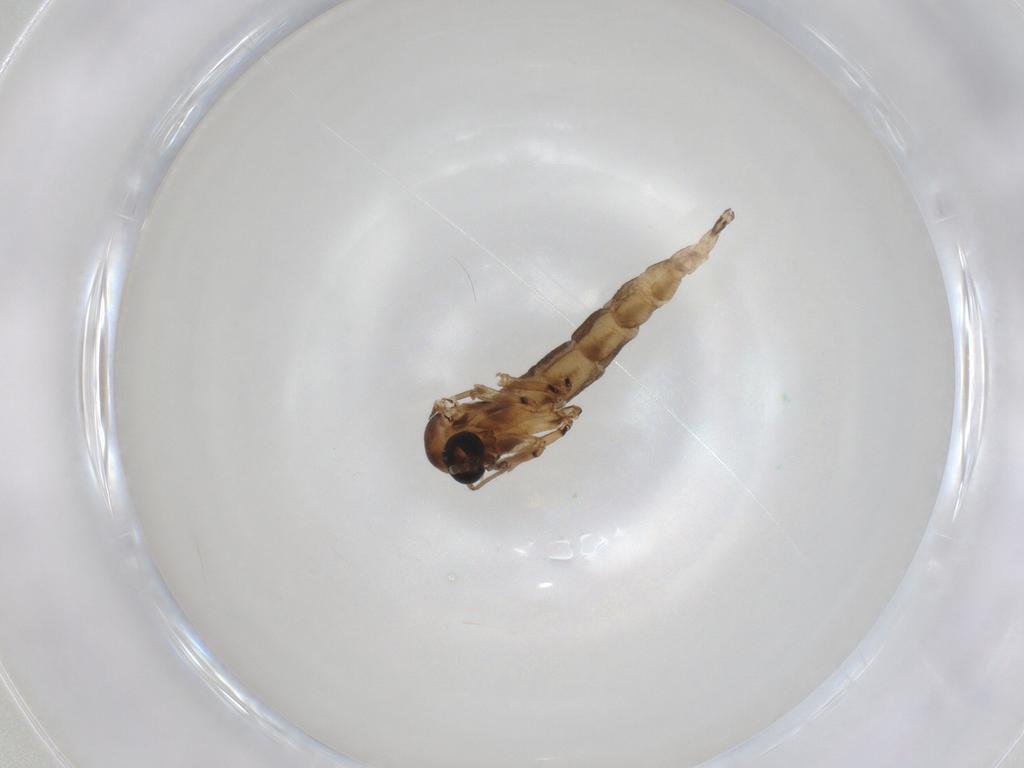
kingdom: Animalia
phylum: Arthropoda
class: Insecta
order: Diptera
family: Sciaridae
